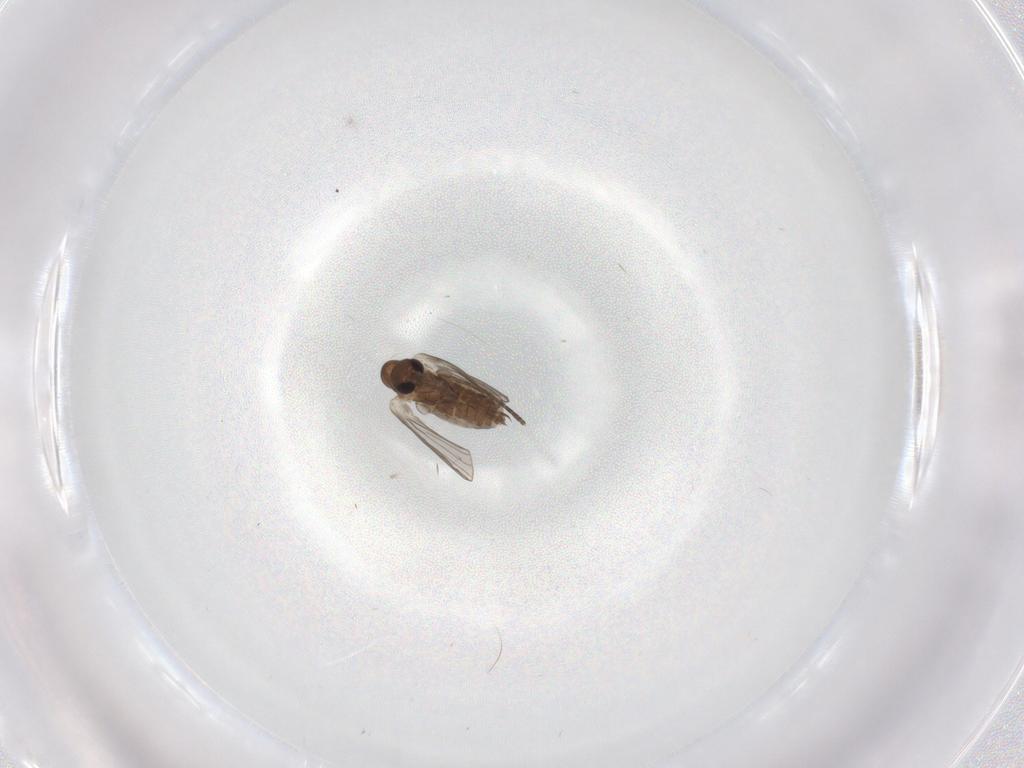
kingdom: Animalia
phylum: Arthropoda
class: Insecta
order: Diptera
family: Cecidomyiidae
